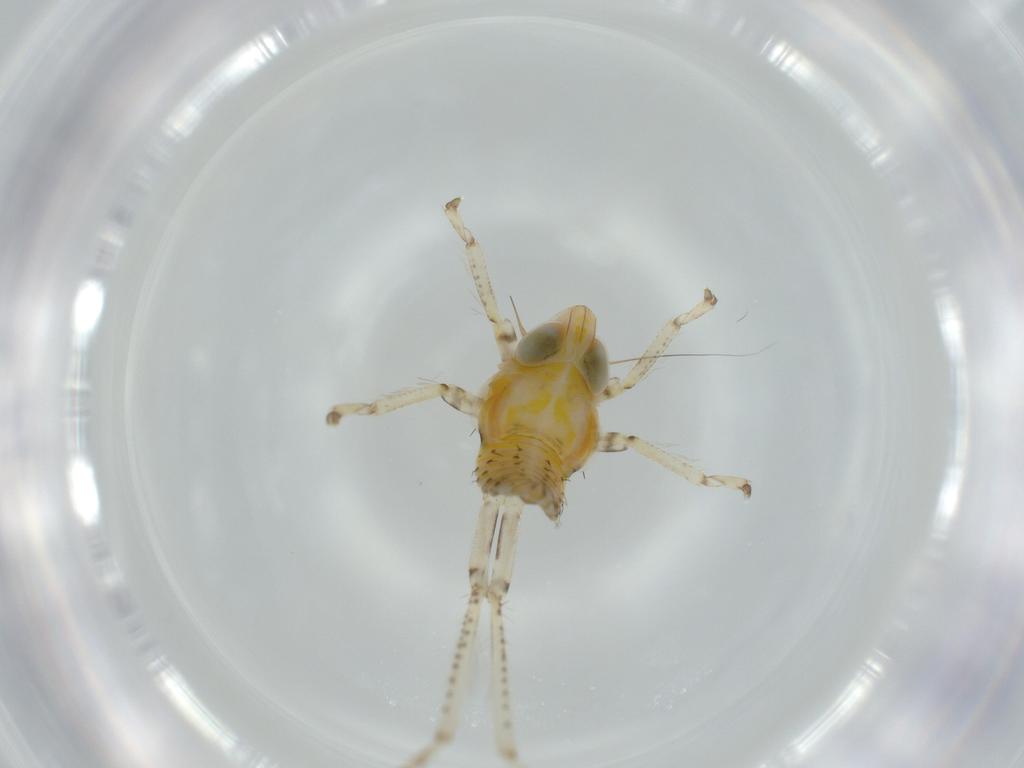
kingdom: Animalia
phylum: Arthropoda
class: Insecta
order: Hemiptera
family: Cicadellidae
